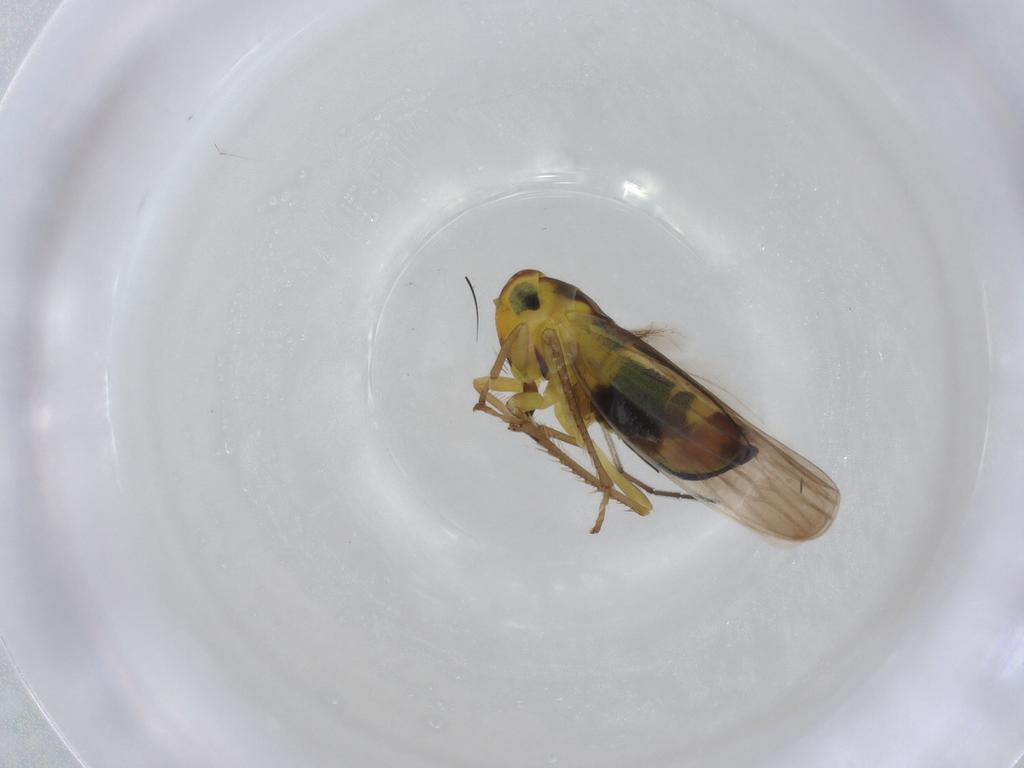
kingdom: Animalia
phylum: Arthropoda
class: Insecta
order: Hemiptera
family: Cicadellidae
